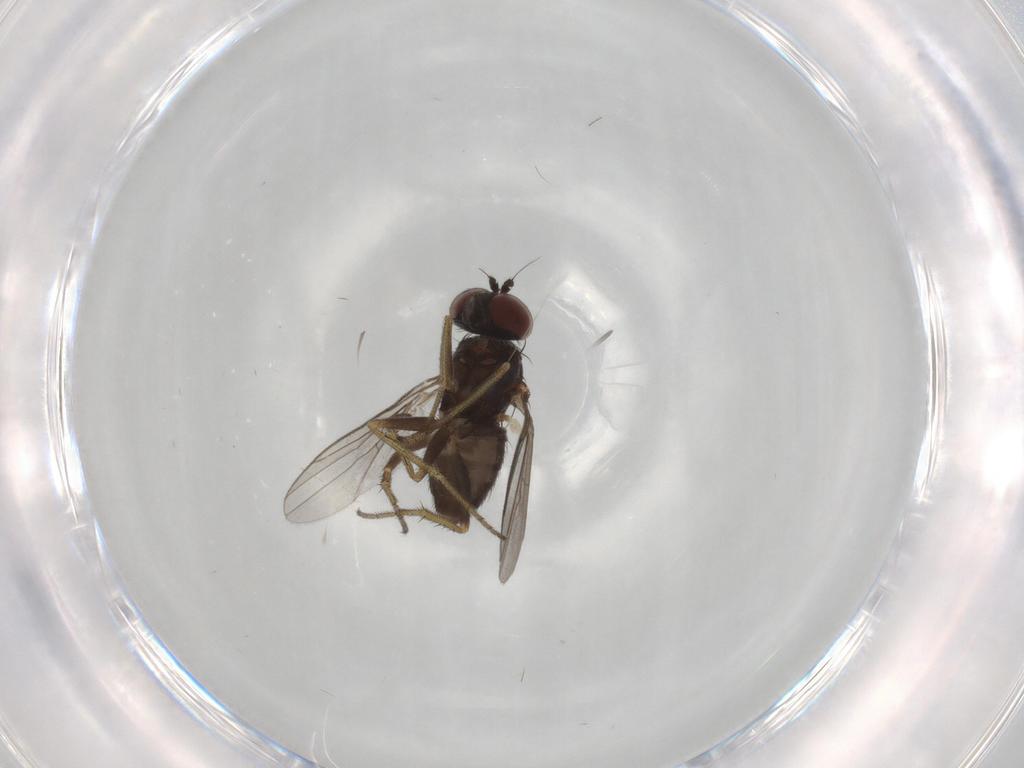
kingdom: Animalia
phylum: Arthropoda
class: Insecta
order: Diptera
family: Dolichopodidae
